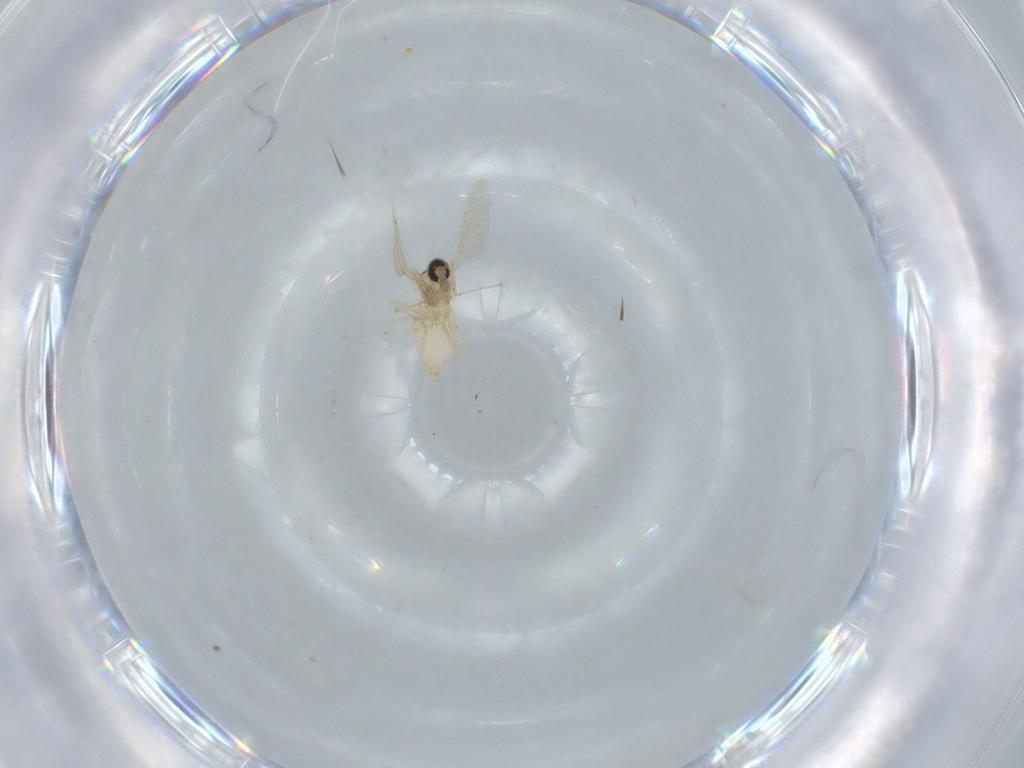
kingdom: Animalia
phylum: Arthropoda
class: Insecta
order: Diptera
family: Cecidomyiidae
